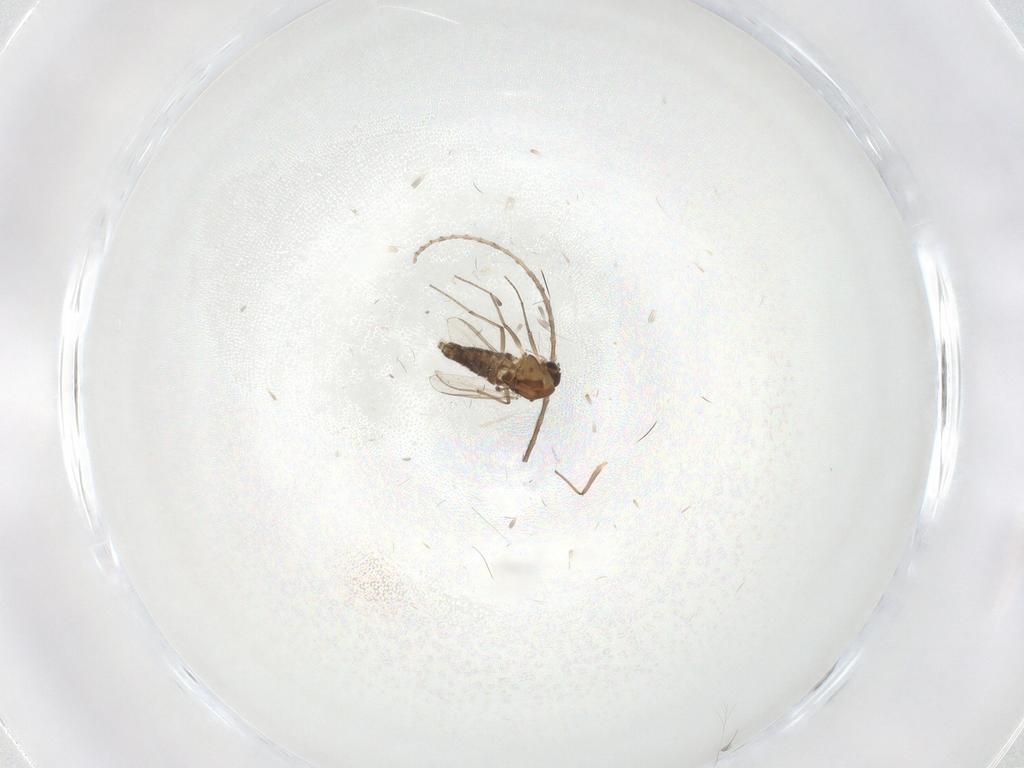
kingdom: Animalia
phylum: Arthropoda
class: Insecta
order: Diptera
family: Chironomidae
